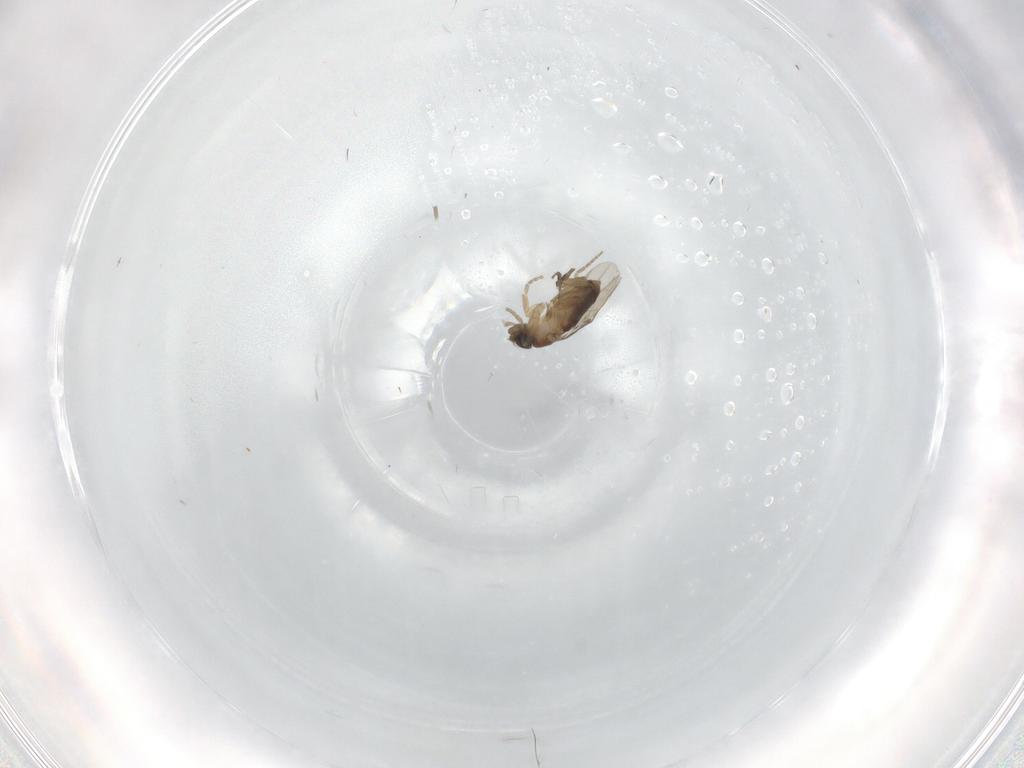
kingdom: Animalia
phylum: Arthropoda
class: Insecta
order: Diptera
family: Phoridae
